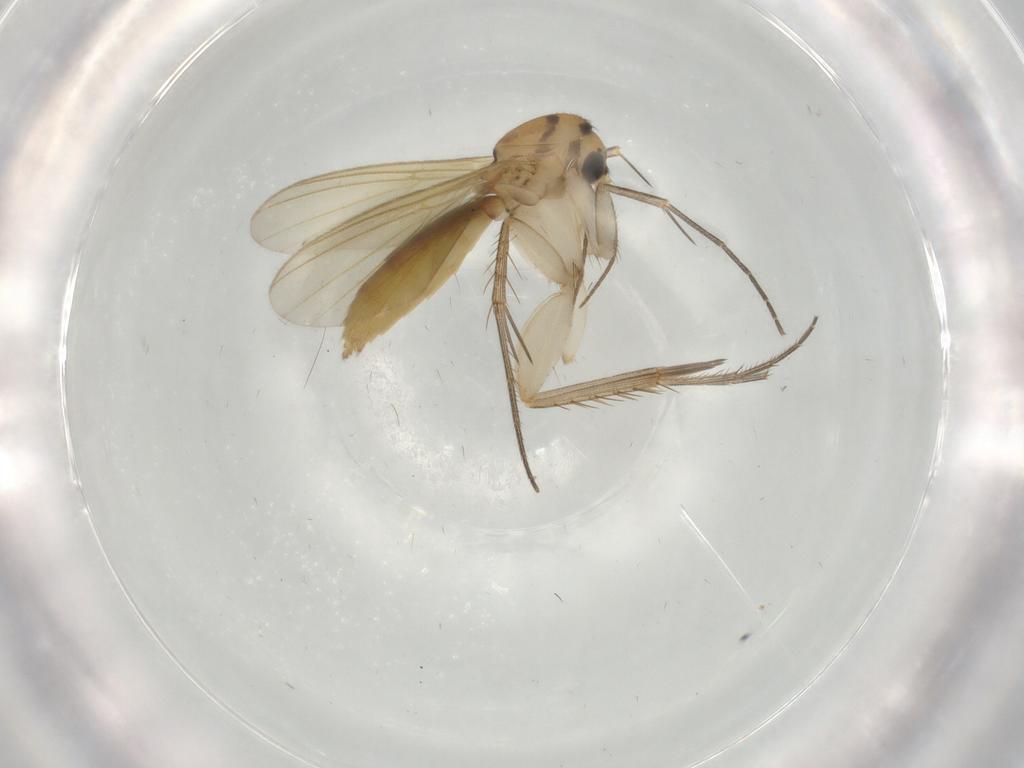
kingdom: Animalia
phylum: Arthropoda
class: Insecta
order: Diptera
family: Mycetophilidae
